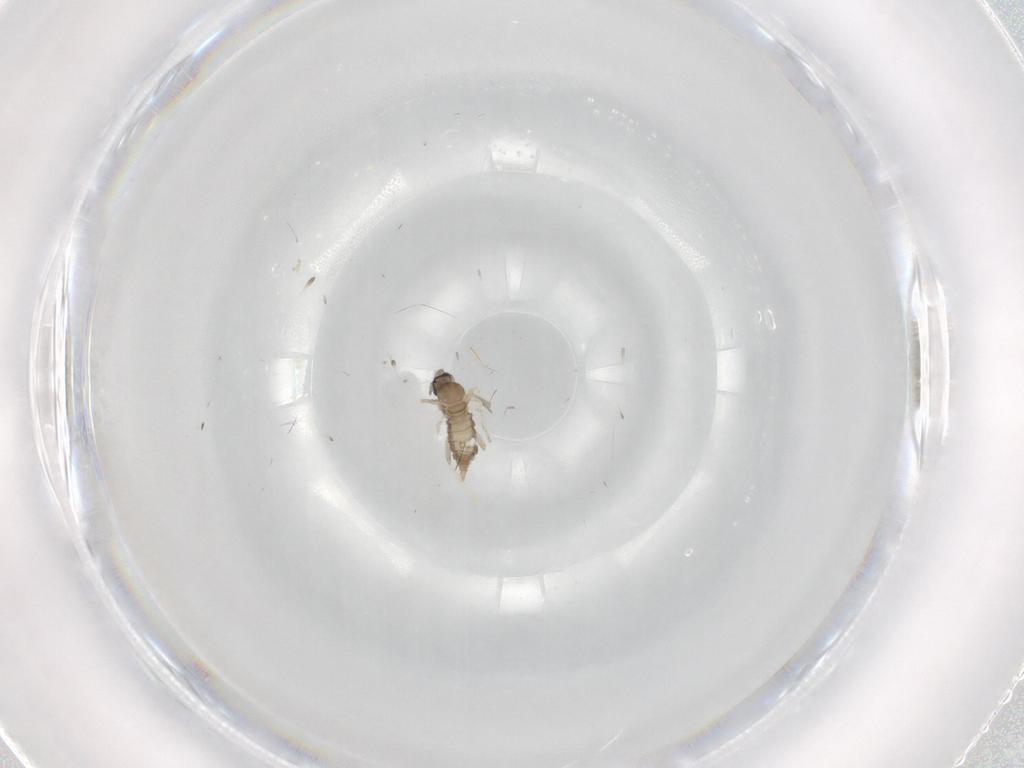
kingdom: Animalia
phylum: Arthropoda
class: Insecta
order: Diptera
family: Cecidomyiidae
